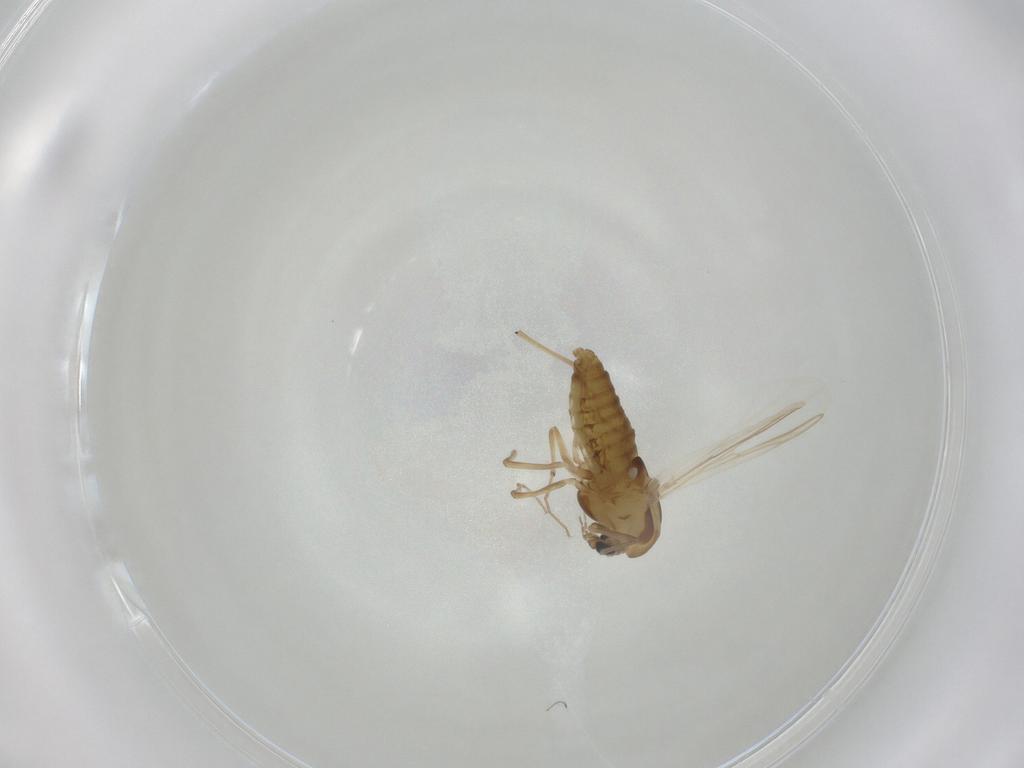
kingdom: Animalia
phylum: Arthropoda
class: Insecta
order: Diptera
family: Chironomidae
